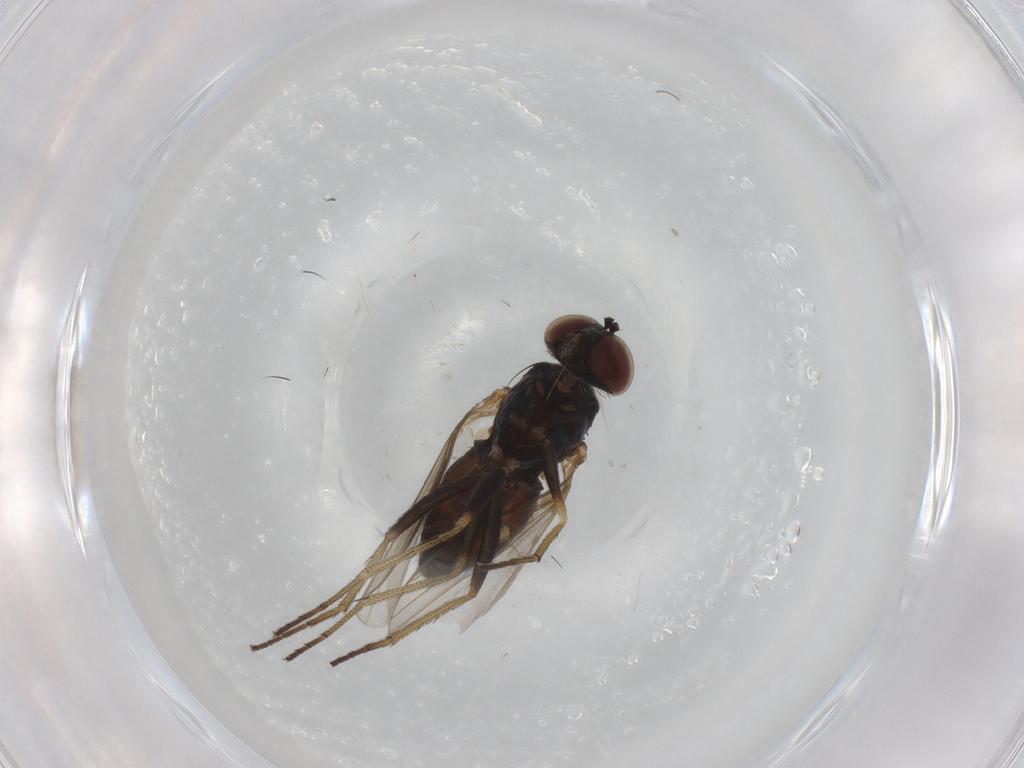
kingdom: Animalia
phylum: Arthropoda
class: Insecta
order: Diptera
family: Dolichopodidae
